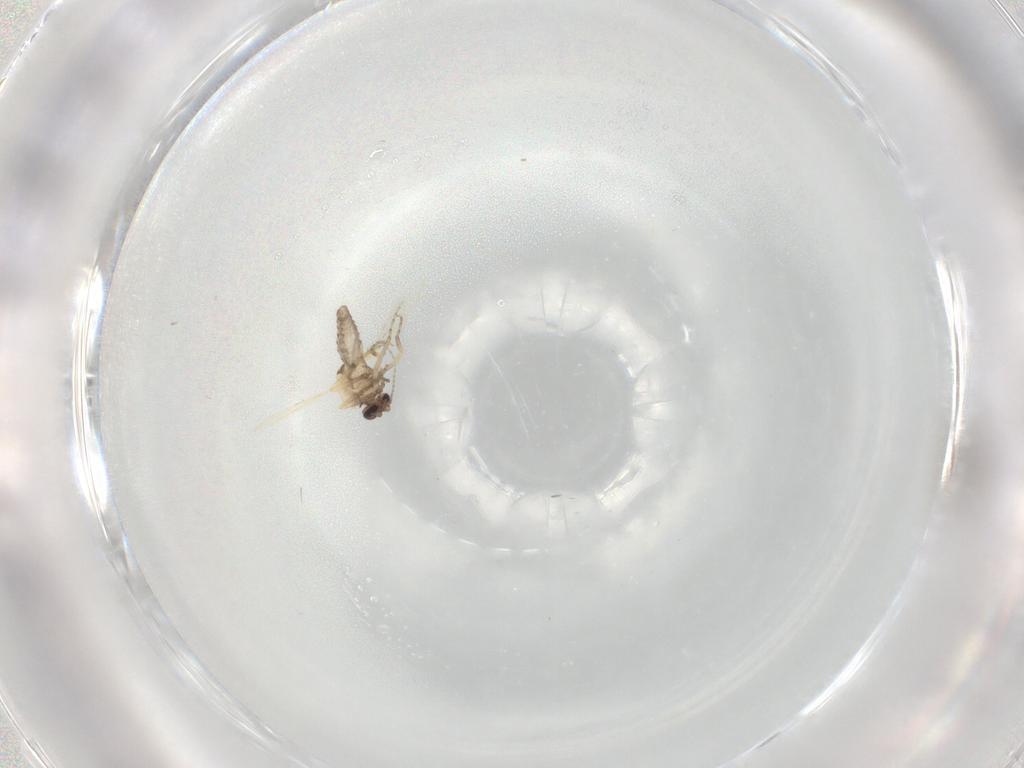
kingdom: Animalia
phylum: Arthropoda
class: Insecta
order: Diptera
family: Ceratopogonidae
